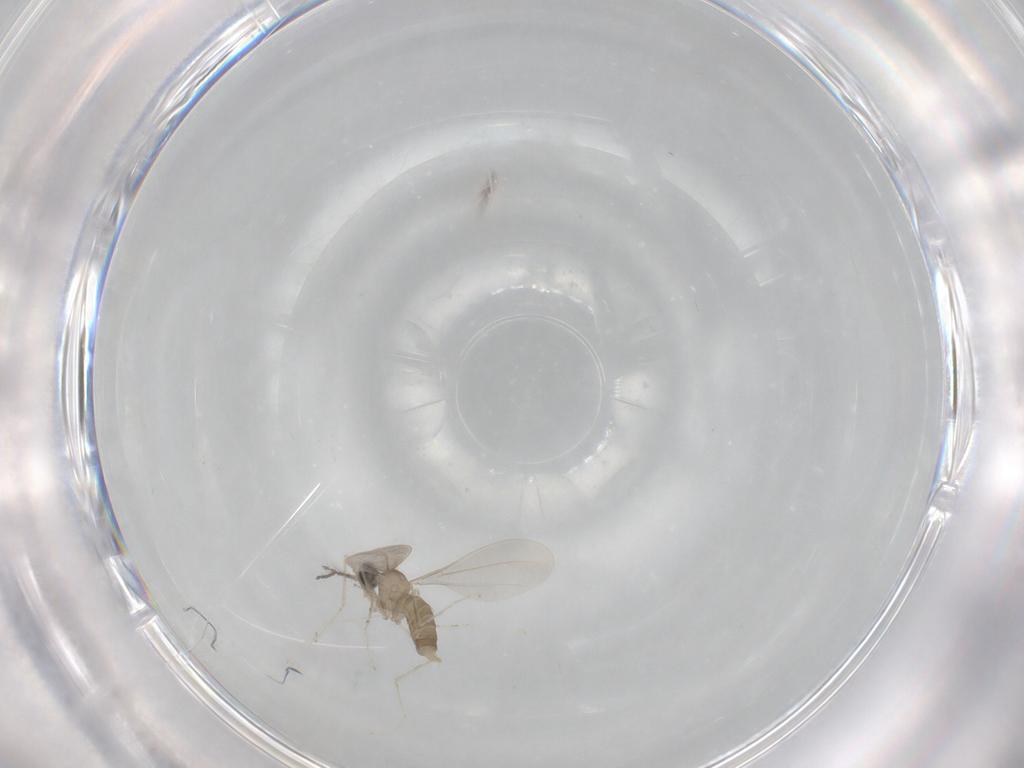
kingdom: Animalia
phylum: Arthropoda
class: Insecta
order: Diptera
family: Cecidomyiidae
